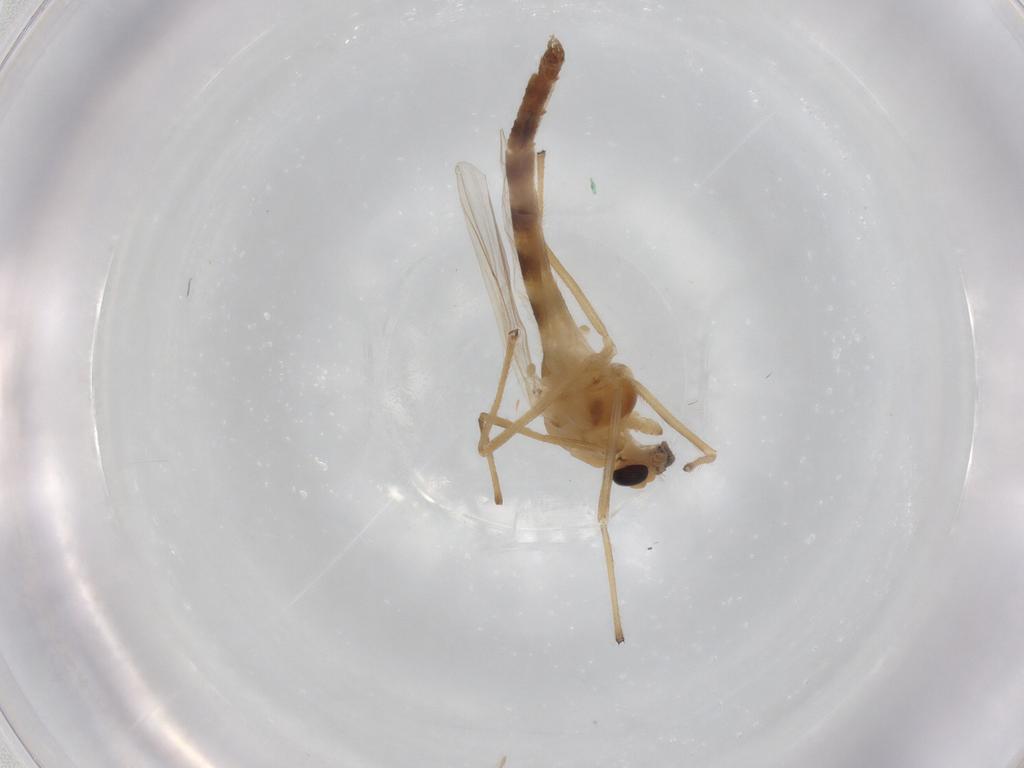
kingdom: Animalia
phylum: Arthropoda
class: Insecta
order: Diptera
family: Chironomidae
